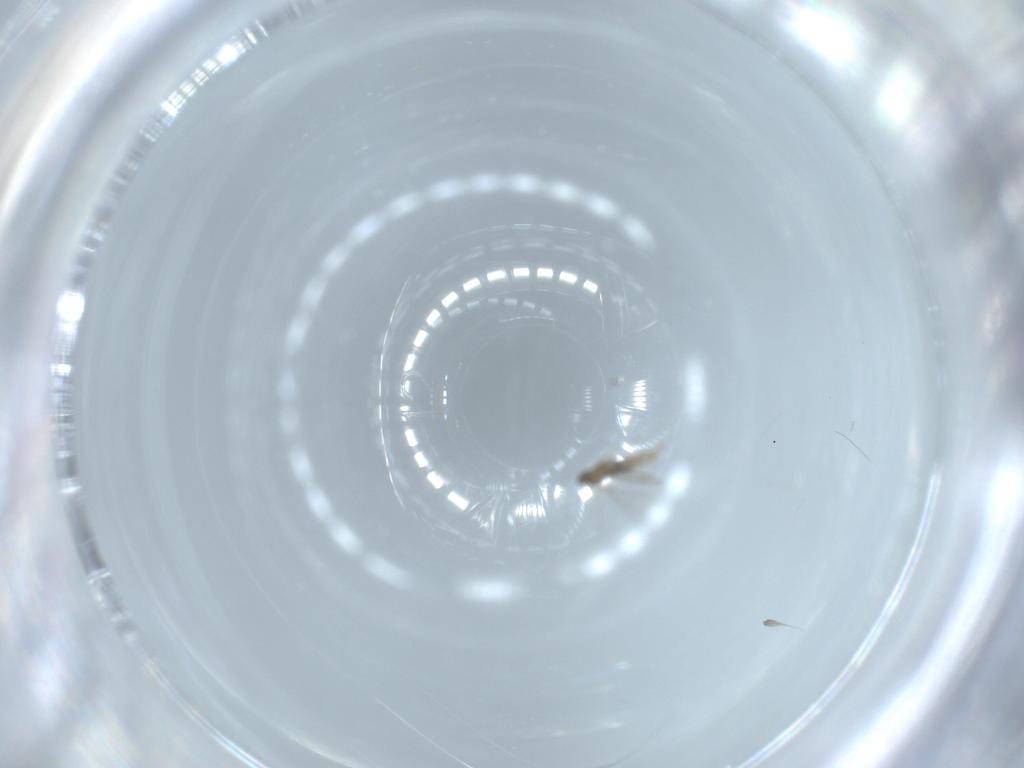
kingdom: Animalia
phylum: Arthropoda
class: Insecta
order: Diptera
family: Cecidomyiidae
